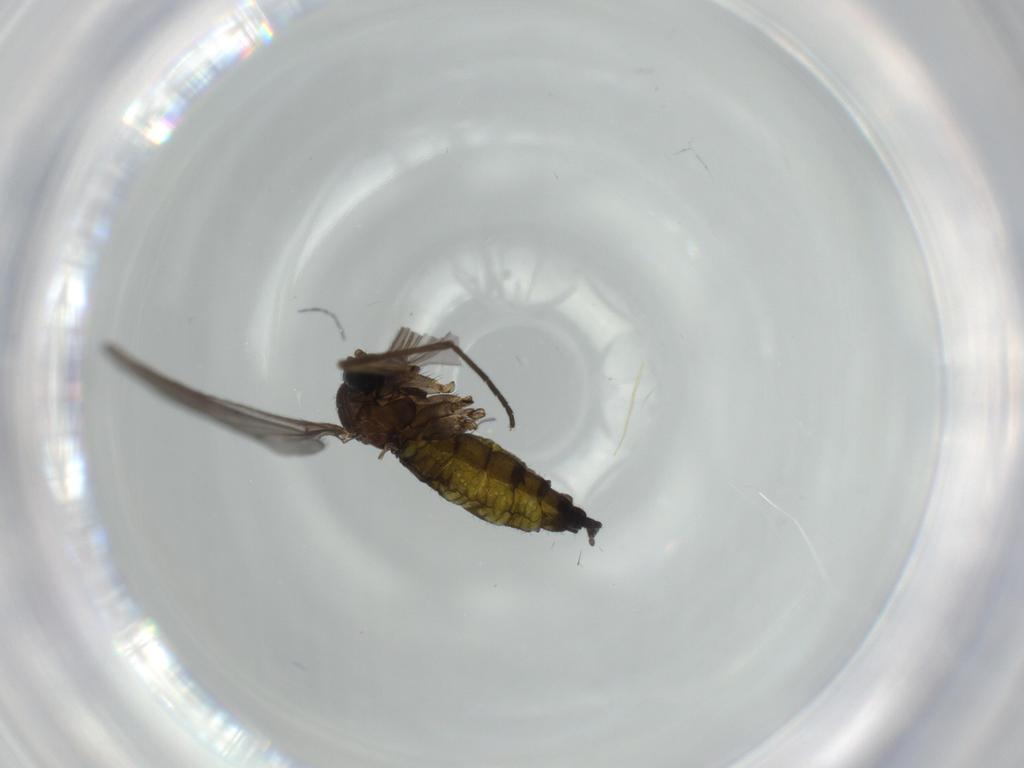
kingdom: Animalia
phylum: Arthropoda
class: Insecta
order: Diptera
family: Sciaridae
